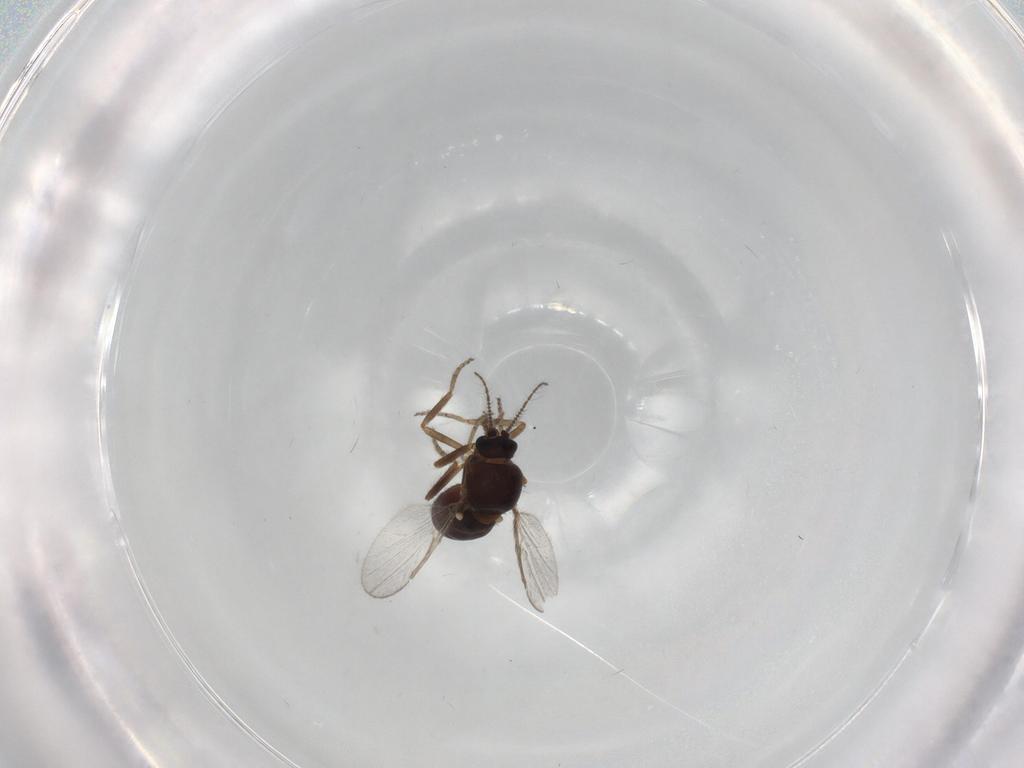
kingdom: Animalia
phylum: Arthropoda
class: Insecta
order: Diptera
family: Ceratopogonidae
